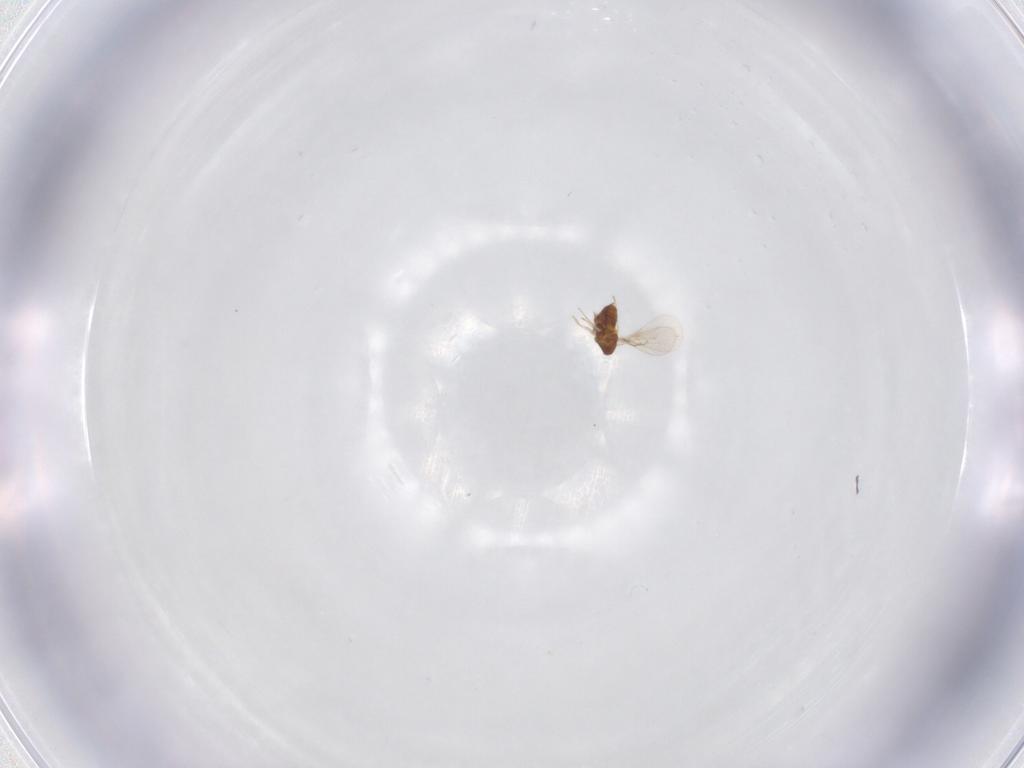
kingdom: Animalia
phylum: Arthropoda
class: Insecta
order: Hymenoptera
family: Trichogrammatidae
